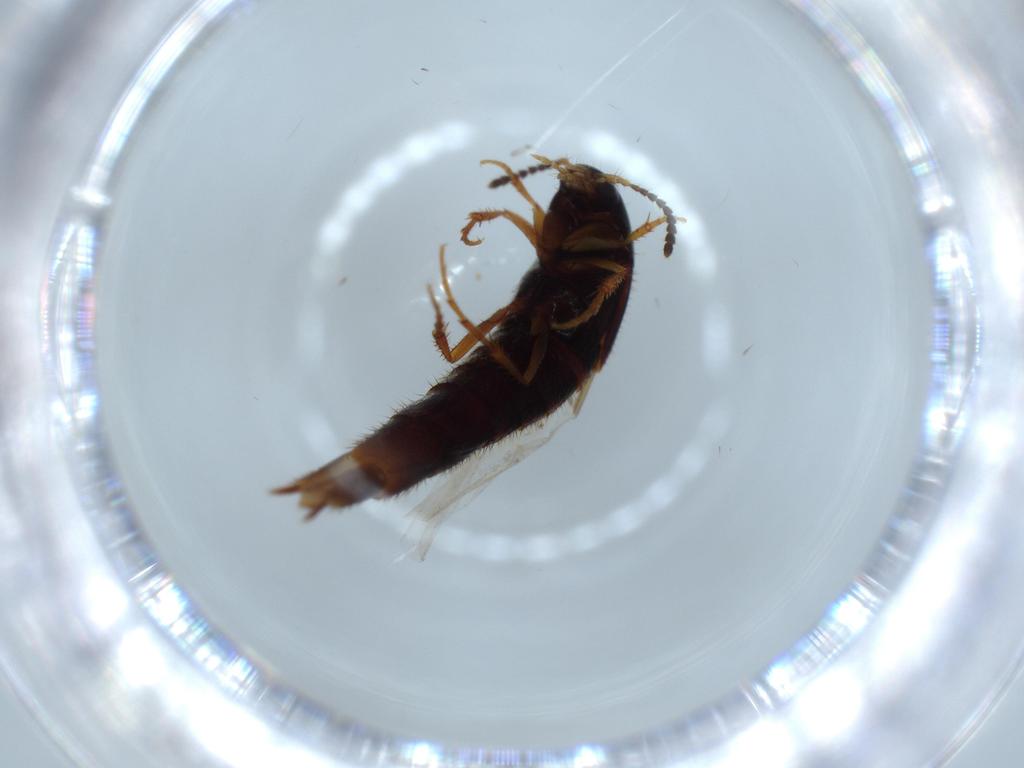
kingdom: Animalia
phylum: Arthropoda
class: Insecta
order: Coleoptera
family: Staphylinidae
